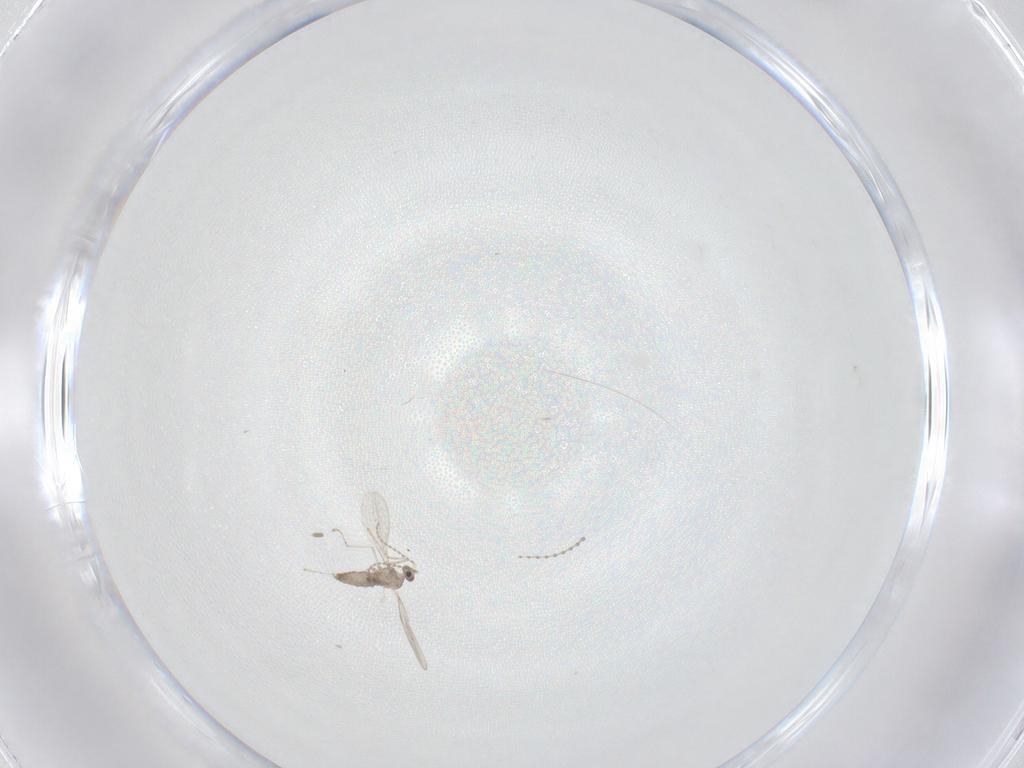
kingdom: Animalia
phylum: Arthropoda
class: Insecta
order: Diptera
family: Cecidomyiidae
